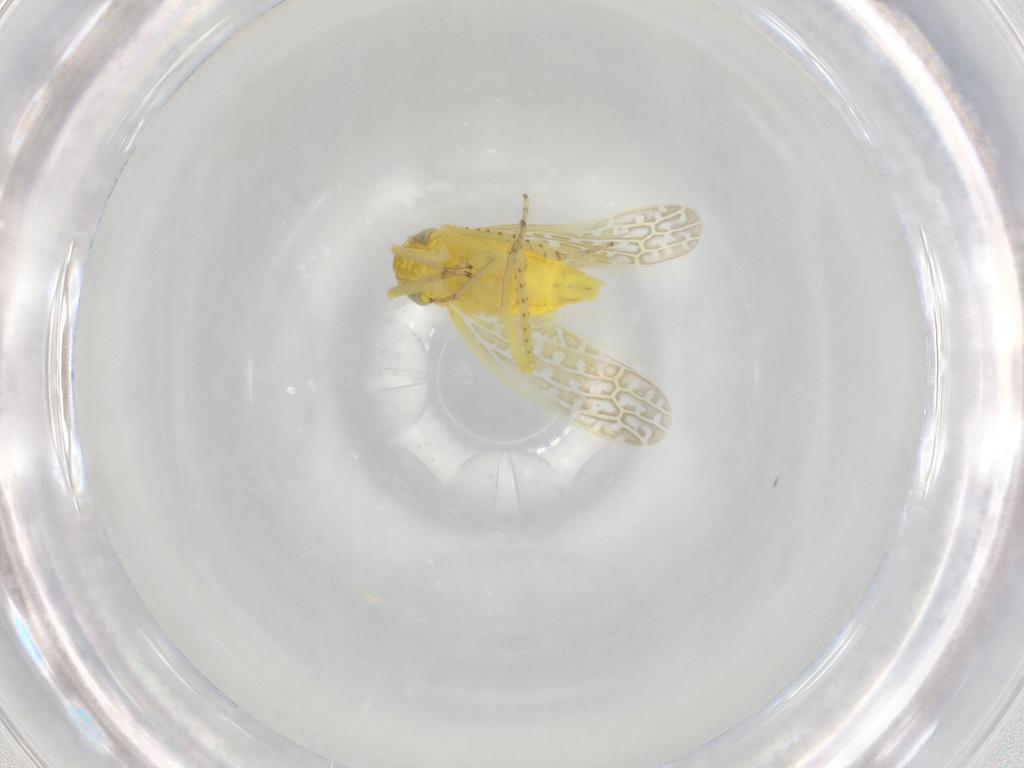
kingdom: Animalia
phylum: Arthropoda
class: Insecta
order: Hemiptera
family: Cicadellidae
